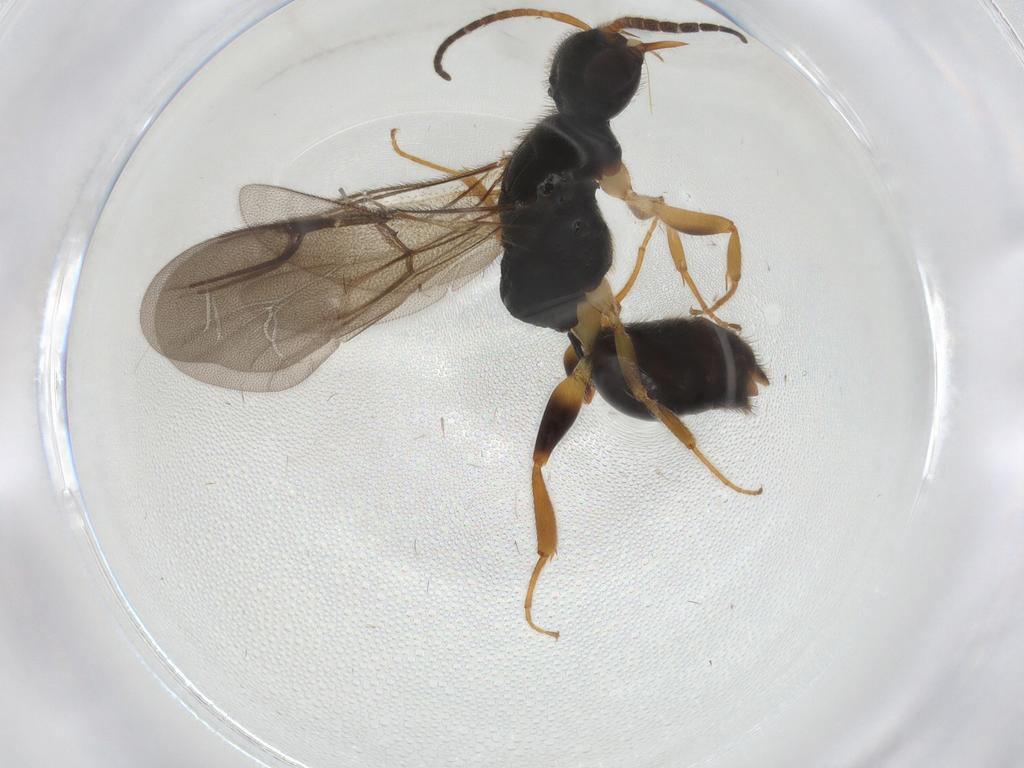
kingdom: Animalia
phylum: Arthropoda
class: Insecta
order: Hymenoptera
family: Bethylidae
